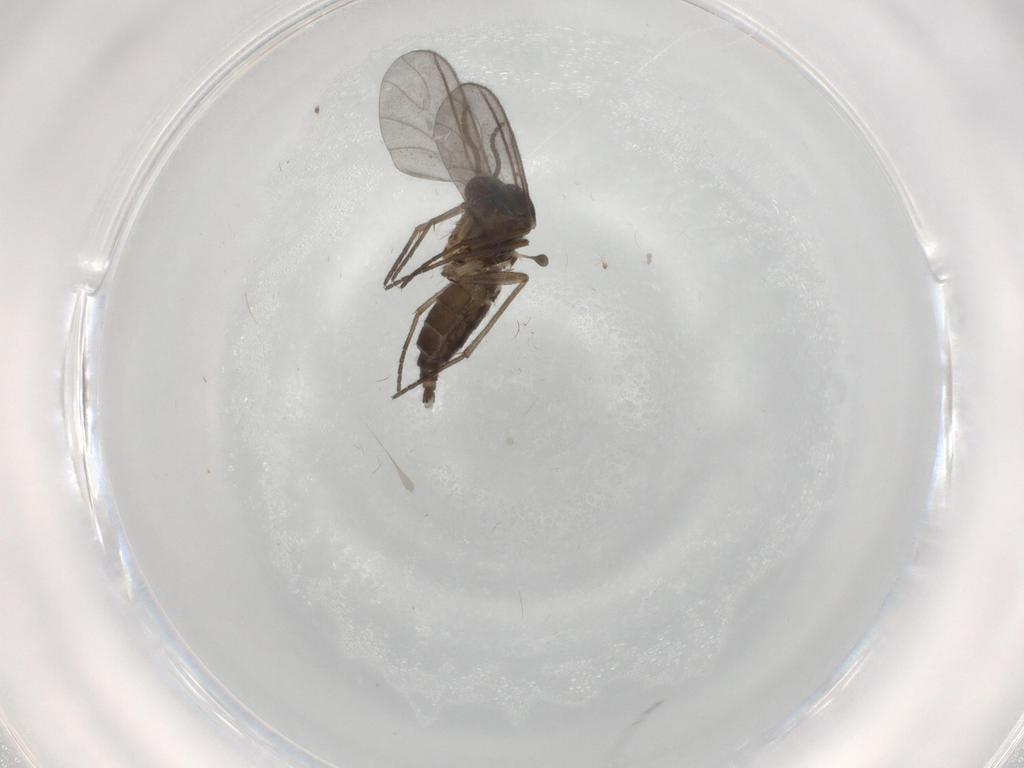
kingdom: Animalia
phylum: Arthropoda
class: Insecta
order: Diptera
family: Sciaridae
